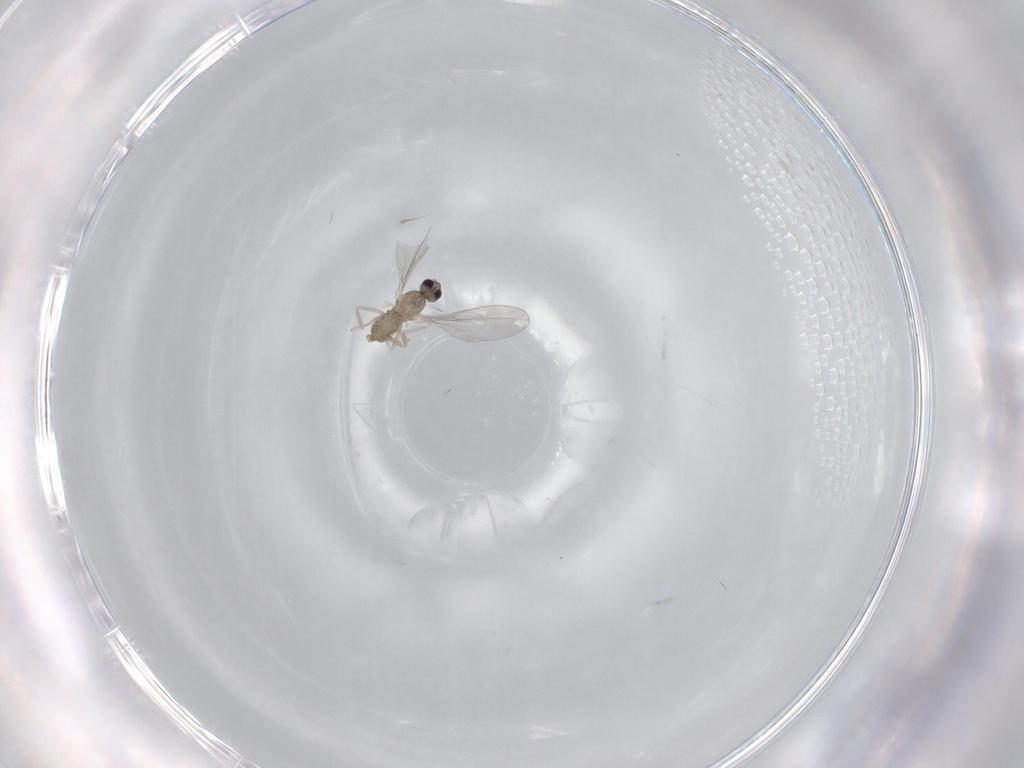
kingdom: Animalia
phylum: Arthropoda
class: Insecta
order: Diptera
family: Cecidomyiidae
